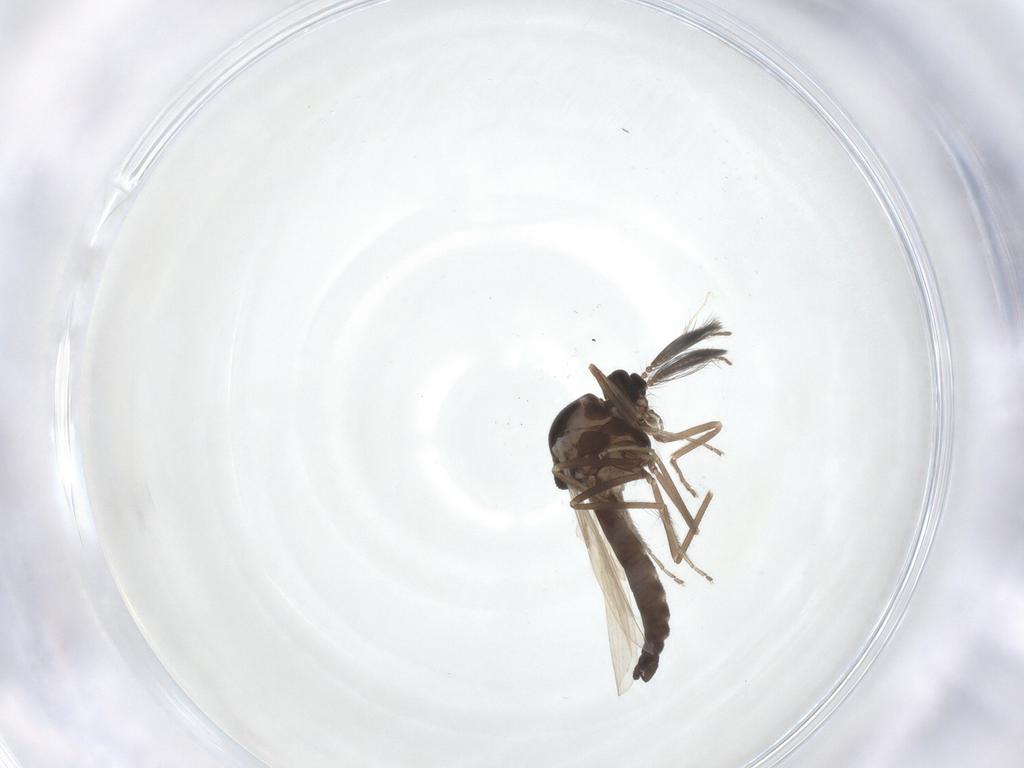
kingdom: Animalia
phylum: Arthropoda
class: Insecta
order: Diptera
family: Ceratopogonidae
